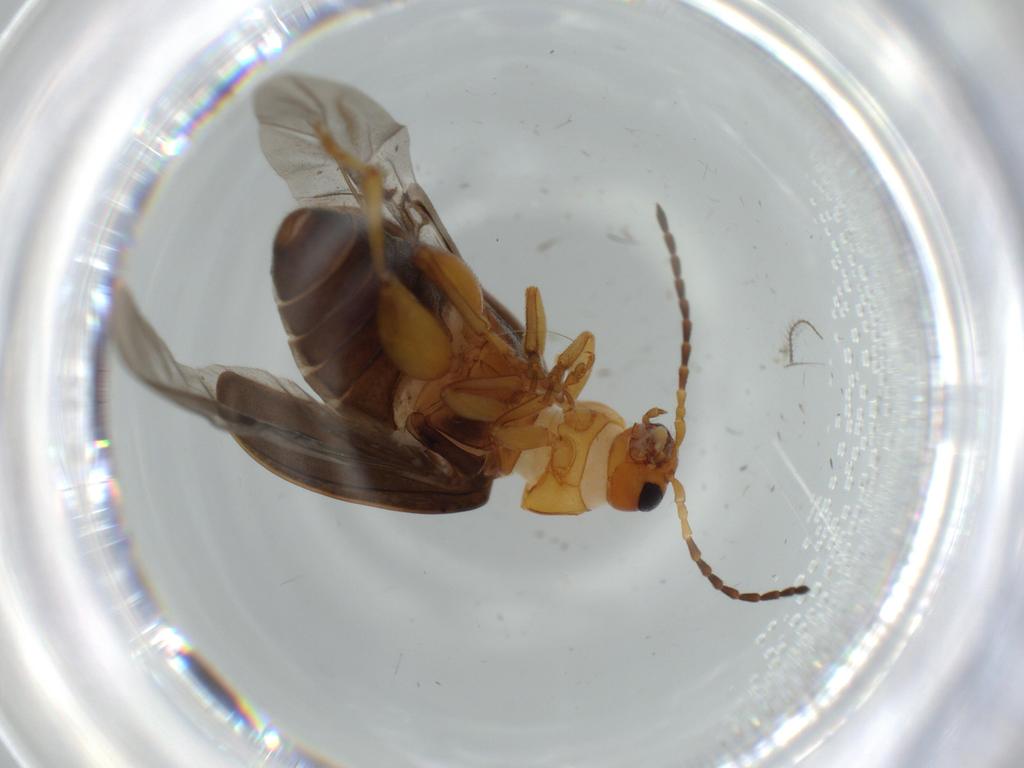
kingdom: Animalia
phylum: Arthropoda
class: Insecta
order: Coleoptera
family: Chrysomelidae
